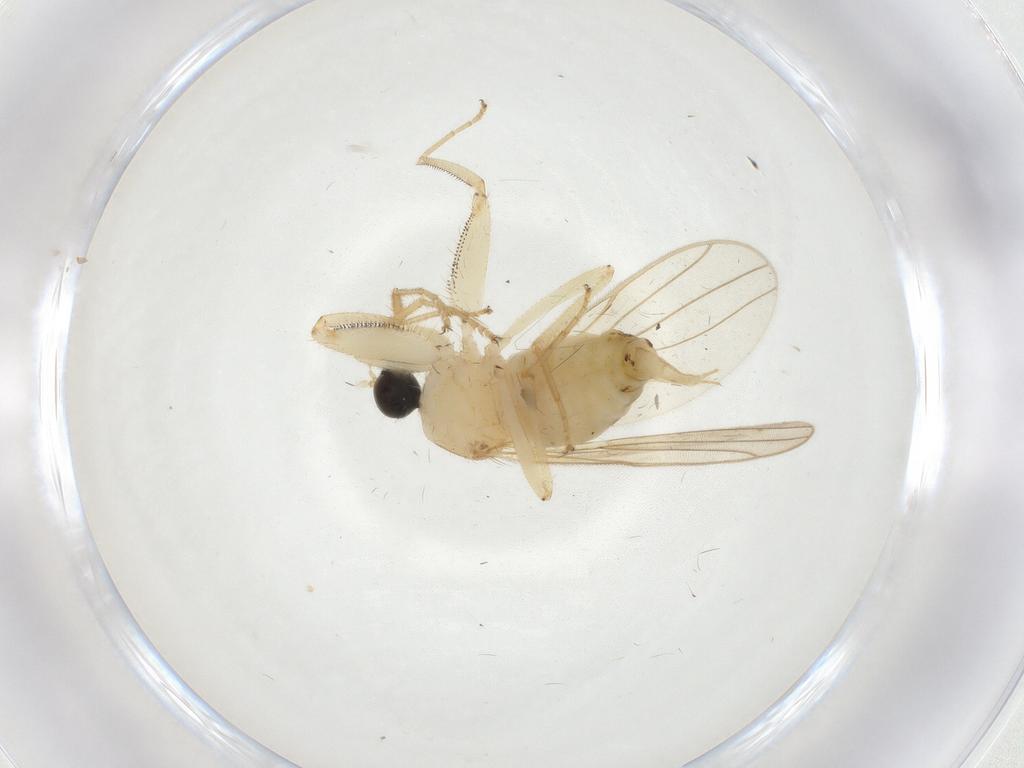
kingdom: Animalia
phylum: Arthropoda
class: Insecta
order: Diptera
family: Hybotidae
